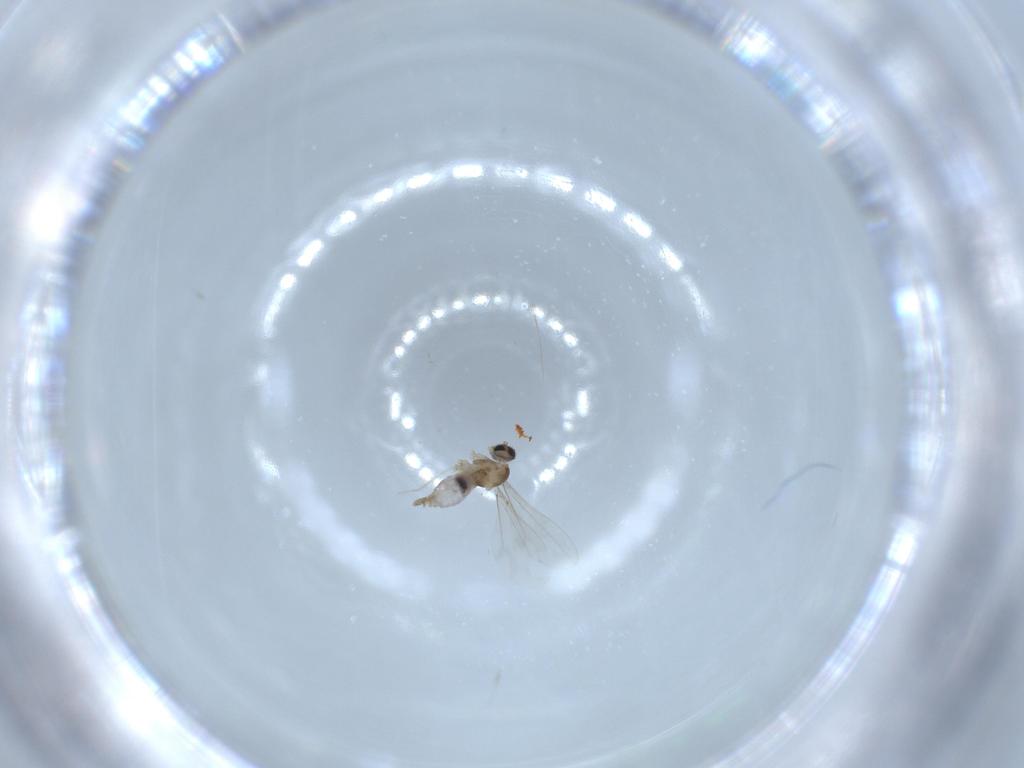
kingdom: Animalia
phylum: Arthropoda
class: Insecta
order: Diptera
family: Cecidomyiidae
